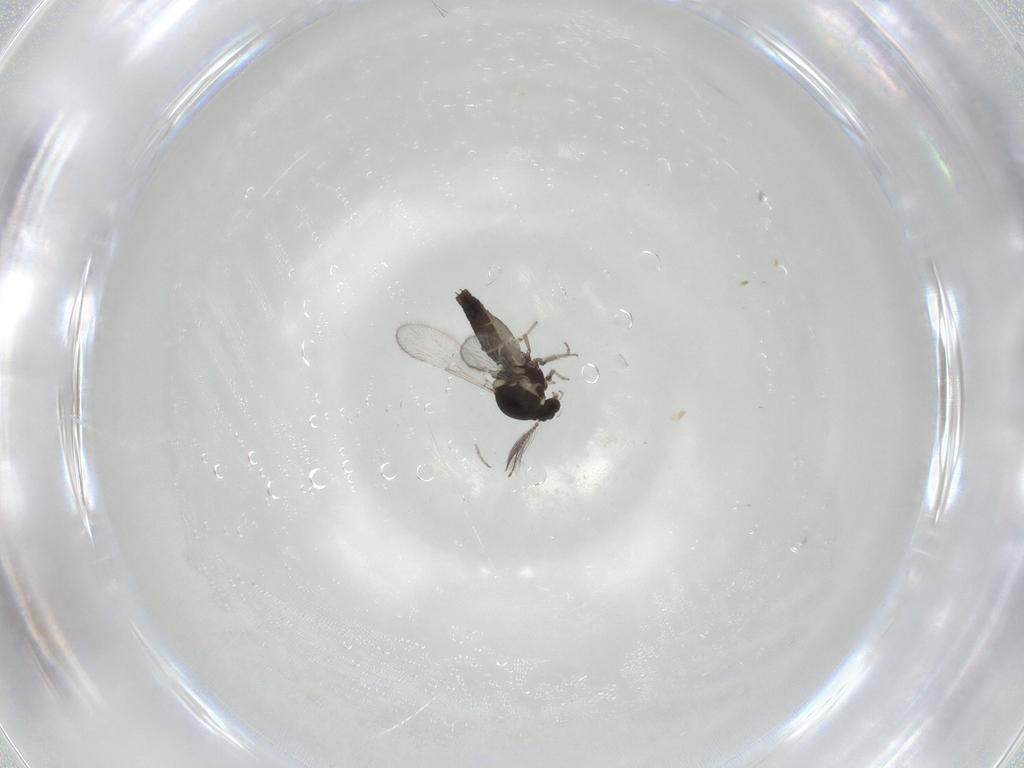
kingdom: Animalia
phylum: Arthropoda
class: Insecta
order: Diptera
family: Ceratopogonidae
